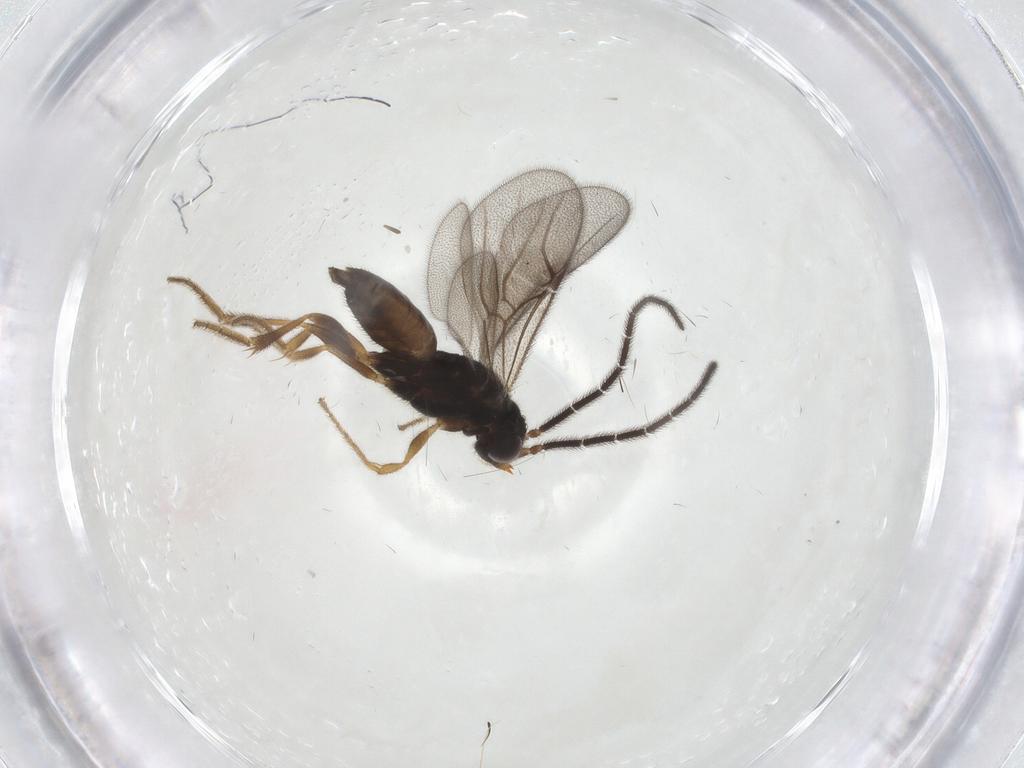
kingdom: Animalia
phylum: Arthropoda
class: Insecta
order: Hymenoptera
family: Dryinidae
